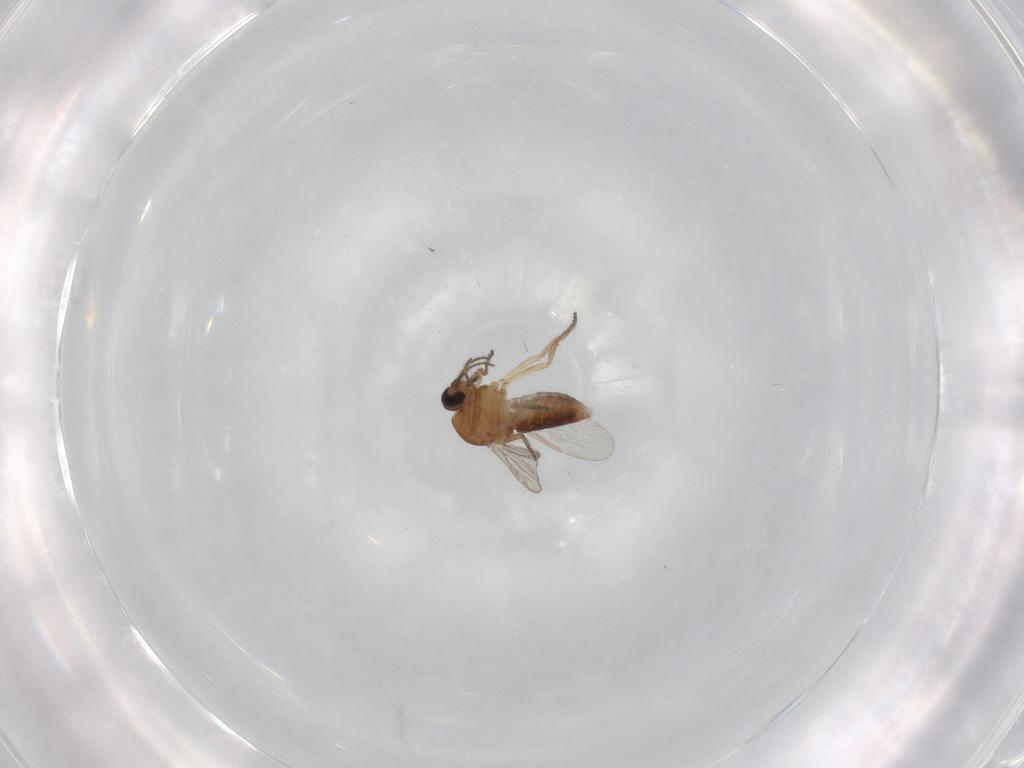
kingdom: Animalia
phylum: Arthropoda
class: Insecta
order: Diptera
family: Ceratopogonidae
